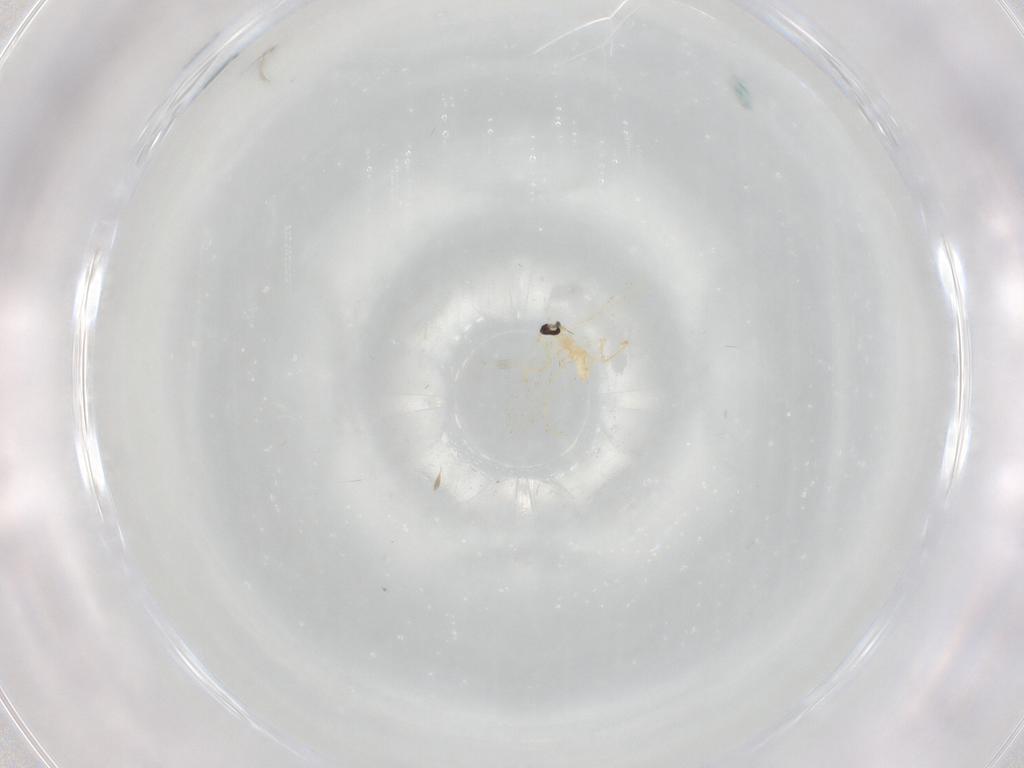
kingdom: Animalia
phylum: Arthropoda
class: Insecta
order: Diptera
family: Cecidomyiidae
